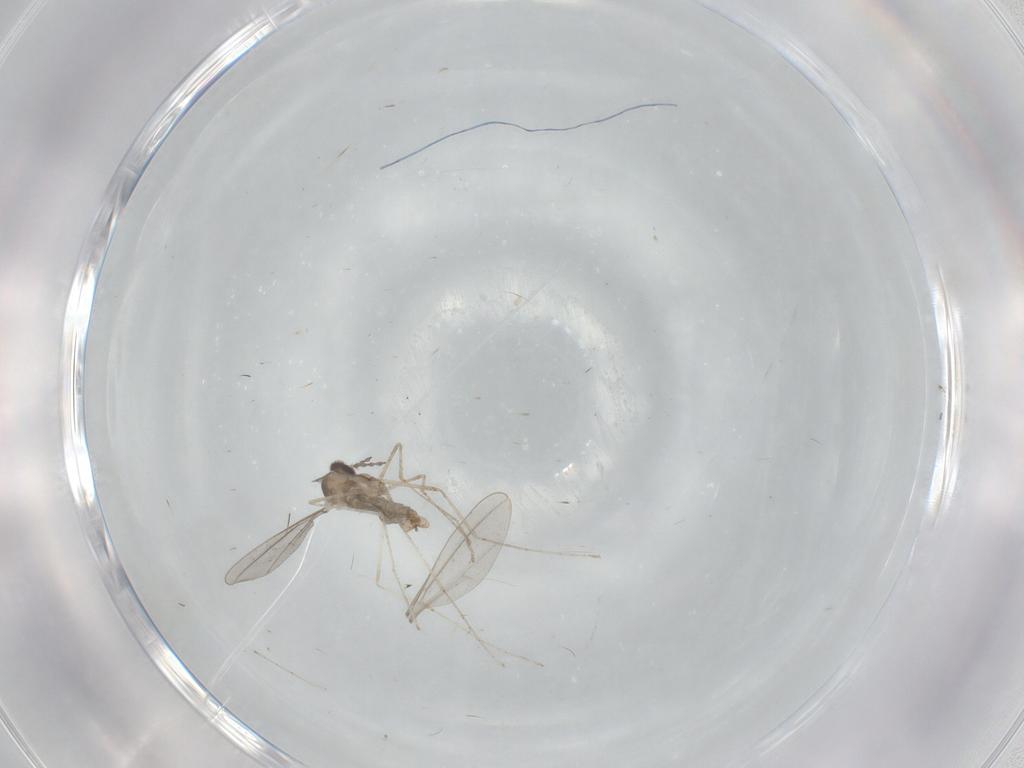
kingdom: Animalia
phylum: Arthropoda
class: Insecta
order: Diptera
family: Cecidomyiidae
